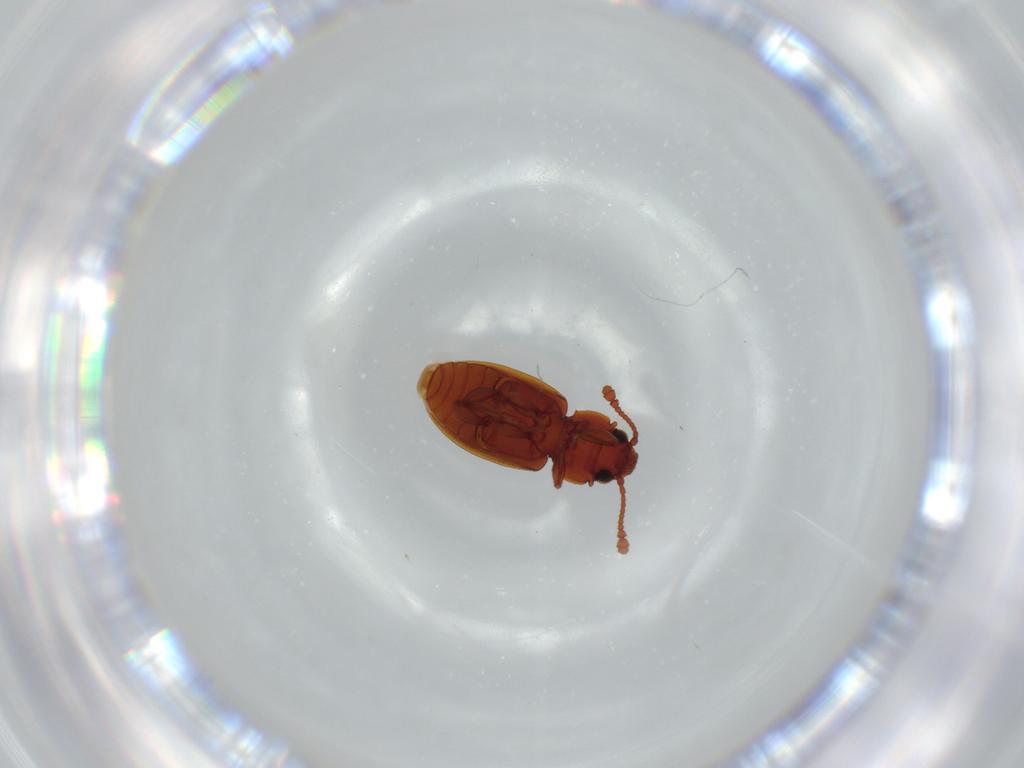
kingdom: Animalia
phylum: Arthropoda
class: Insecta
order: Coleoptera
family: Silvanidae
